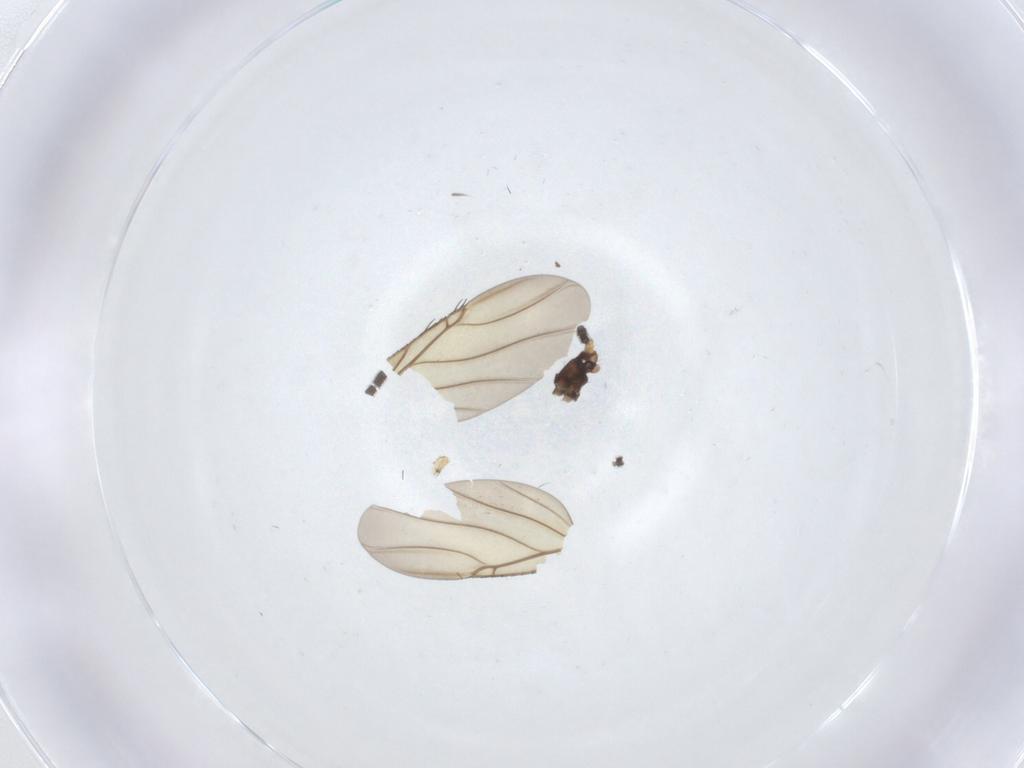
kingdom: Animalia
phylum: Arthropoda
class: Insecta
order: Diptera
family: Phoridae
